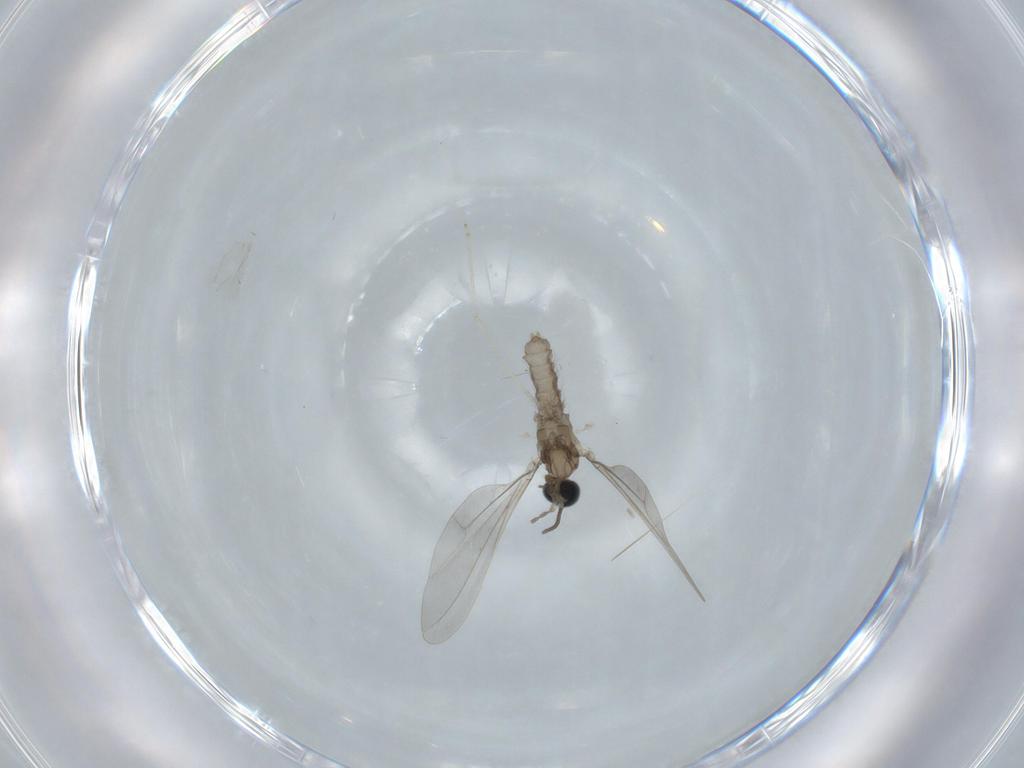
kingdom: Animalia
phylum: Arthropoda
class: Insecta
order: Diptera
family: Cecidomyiidae
